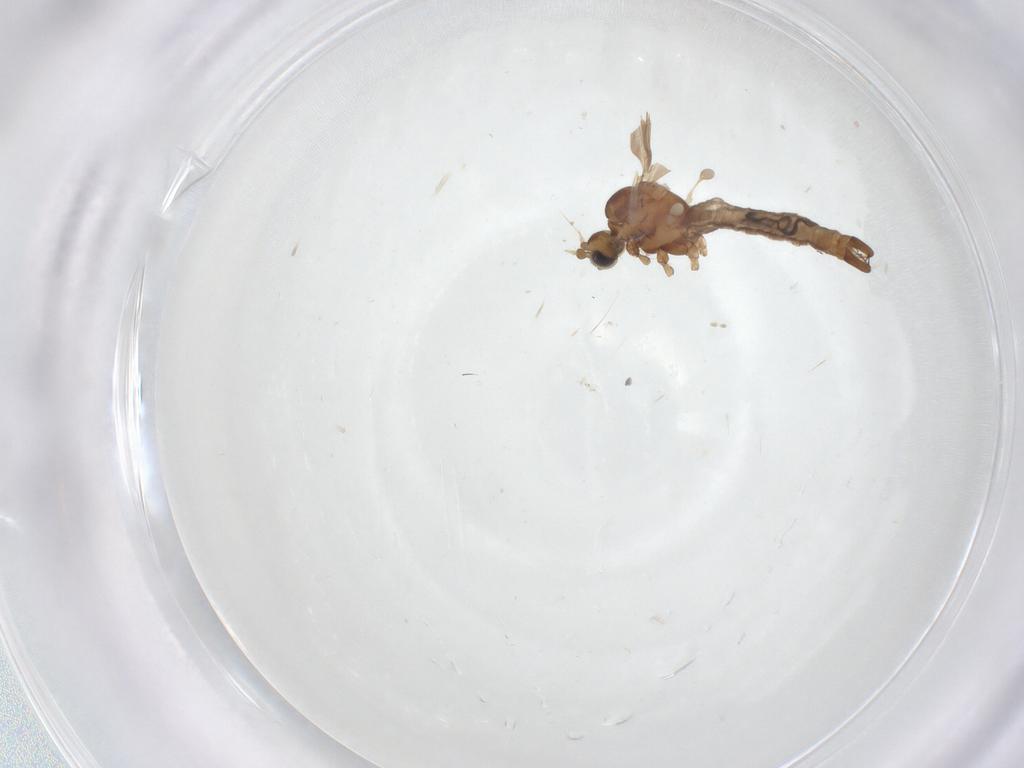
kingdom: Animalia
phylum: Arthropoda
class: Insecta
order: Diptera
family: Limoniidae
